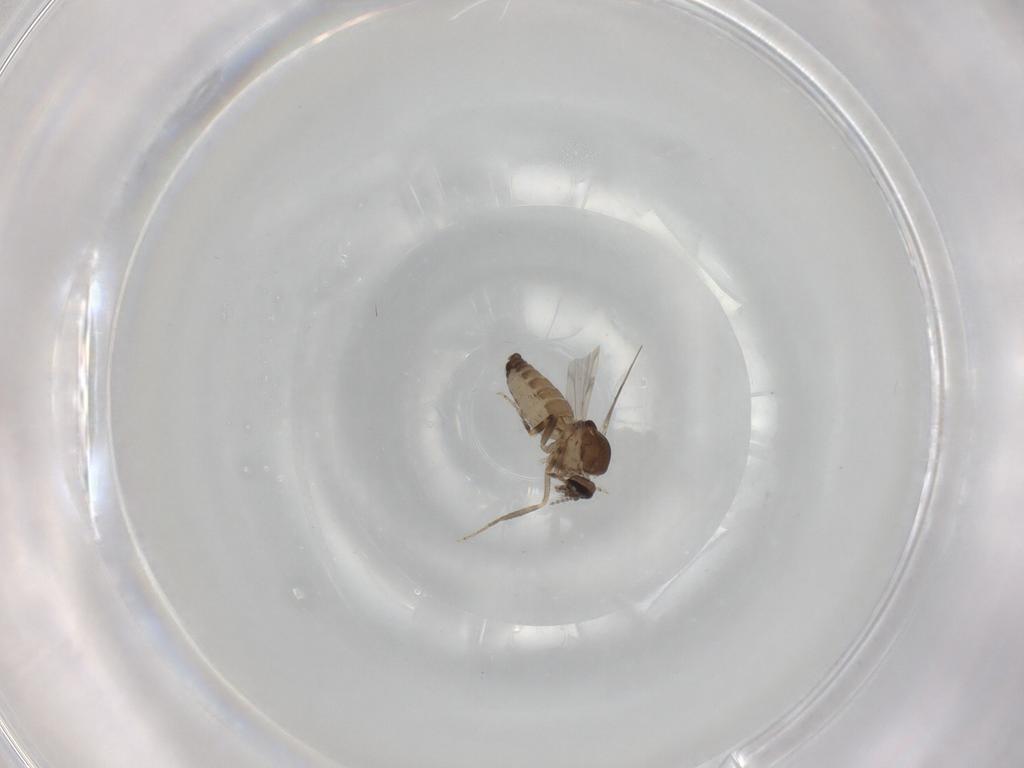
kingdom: Animalia
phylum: Arthropoda
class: Insecta
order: Diptera
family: Ceratopogonidae
